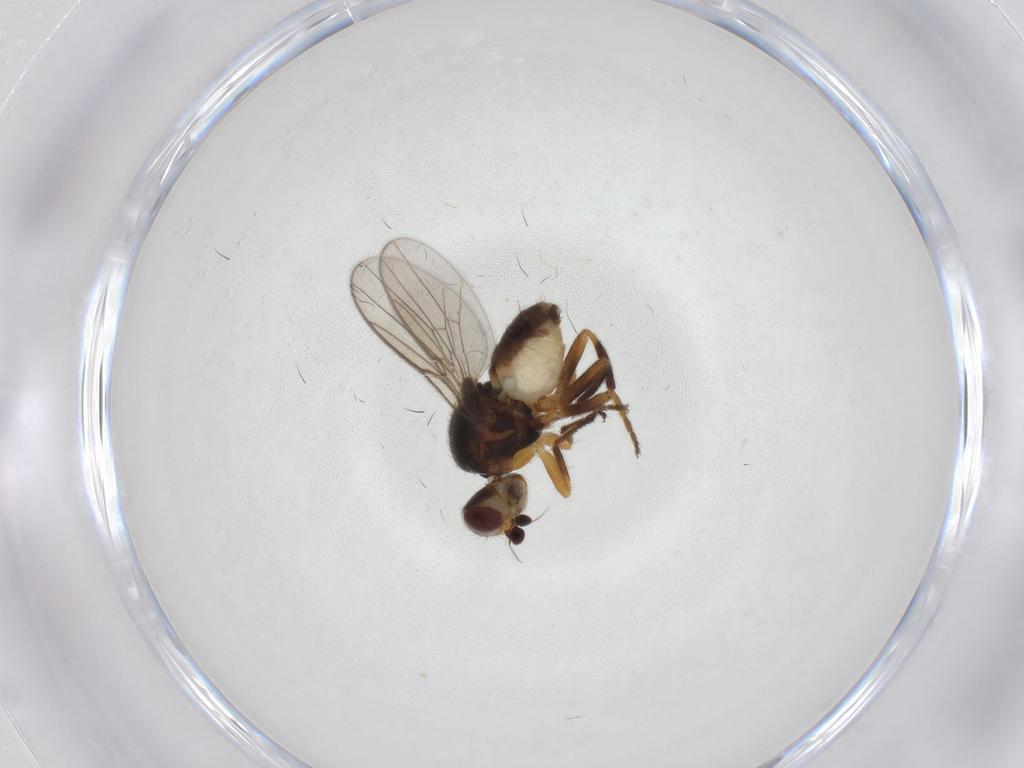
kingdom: Animalia
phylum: Arthropoda
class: Insecta
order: Diptera
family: Chloropidae
